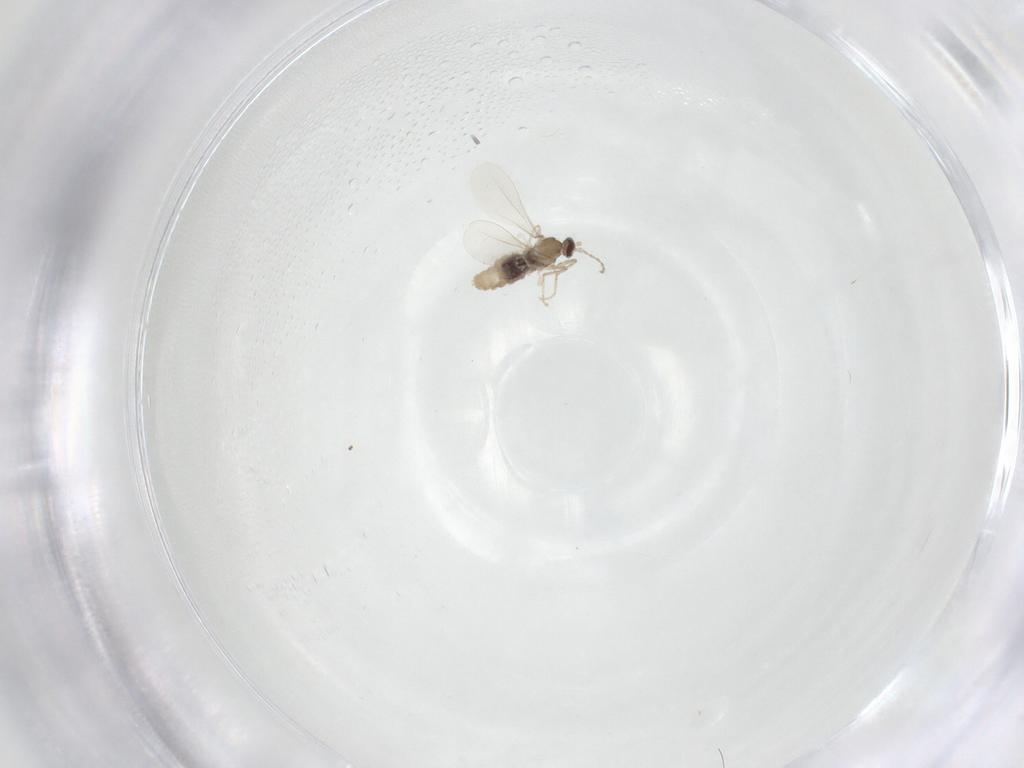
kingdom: Animalia
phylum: Arthropoda
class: Insecta
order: Diptera
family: Cecidomyiidae
